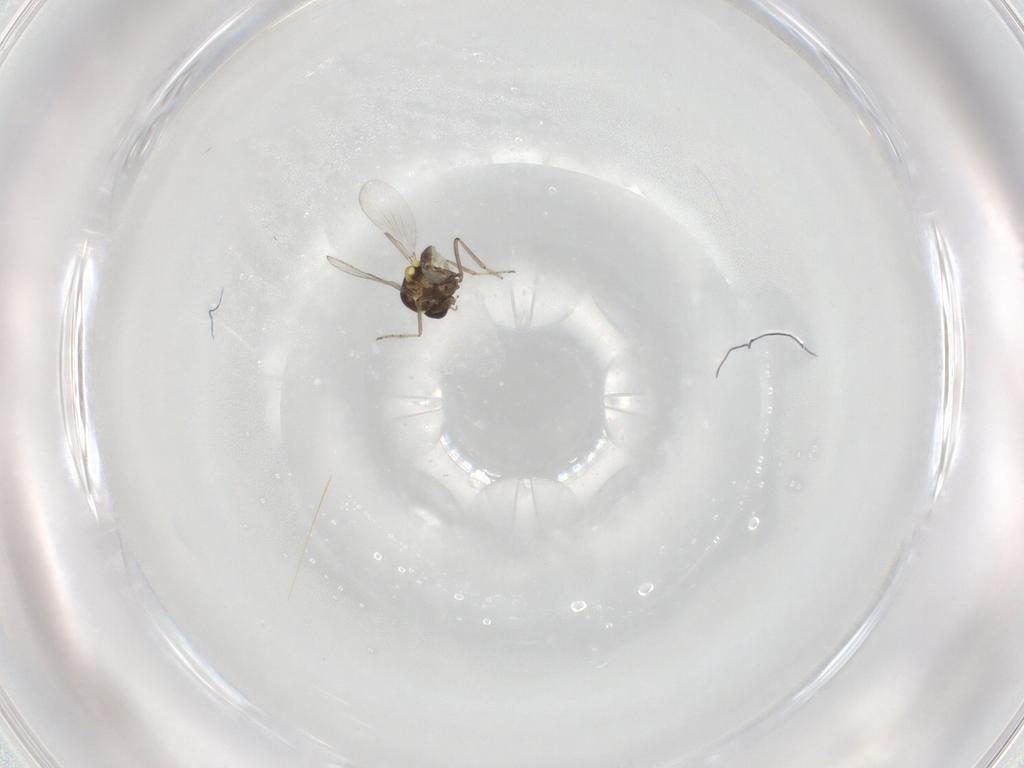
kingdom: Animalia
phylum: Arthropoda
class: Insecta
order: Diptera
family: Ceratopogonidae
